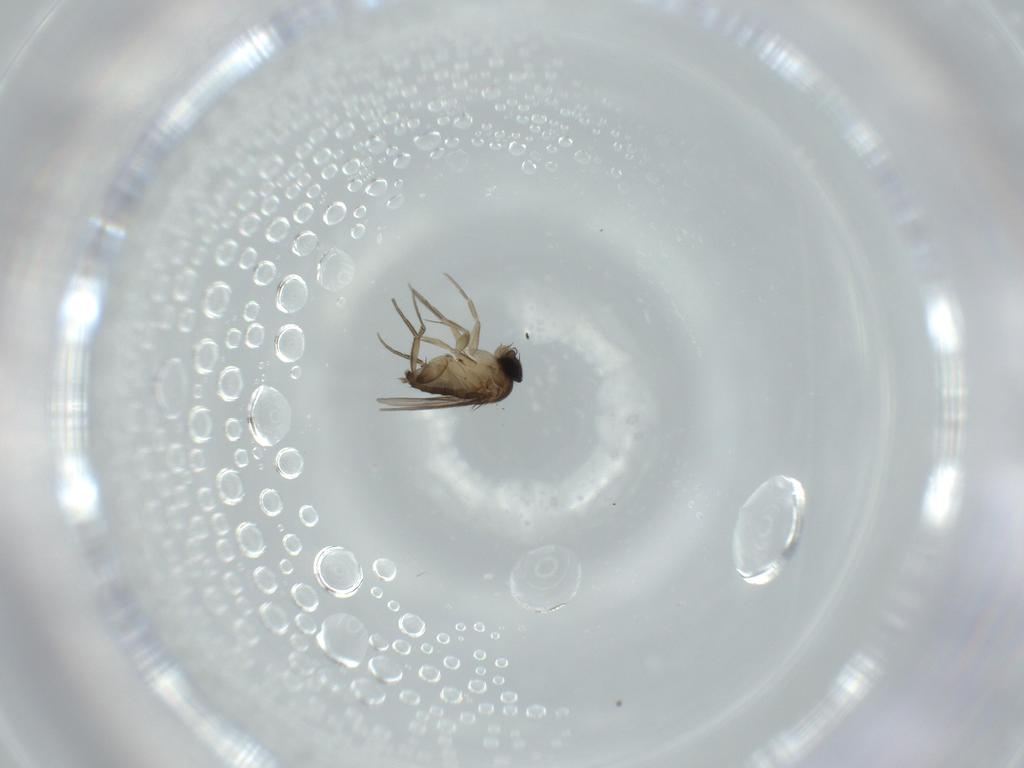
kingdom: Animalia
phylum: Arthropoda
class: Insecta
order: Diptera
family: Phoridae
